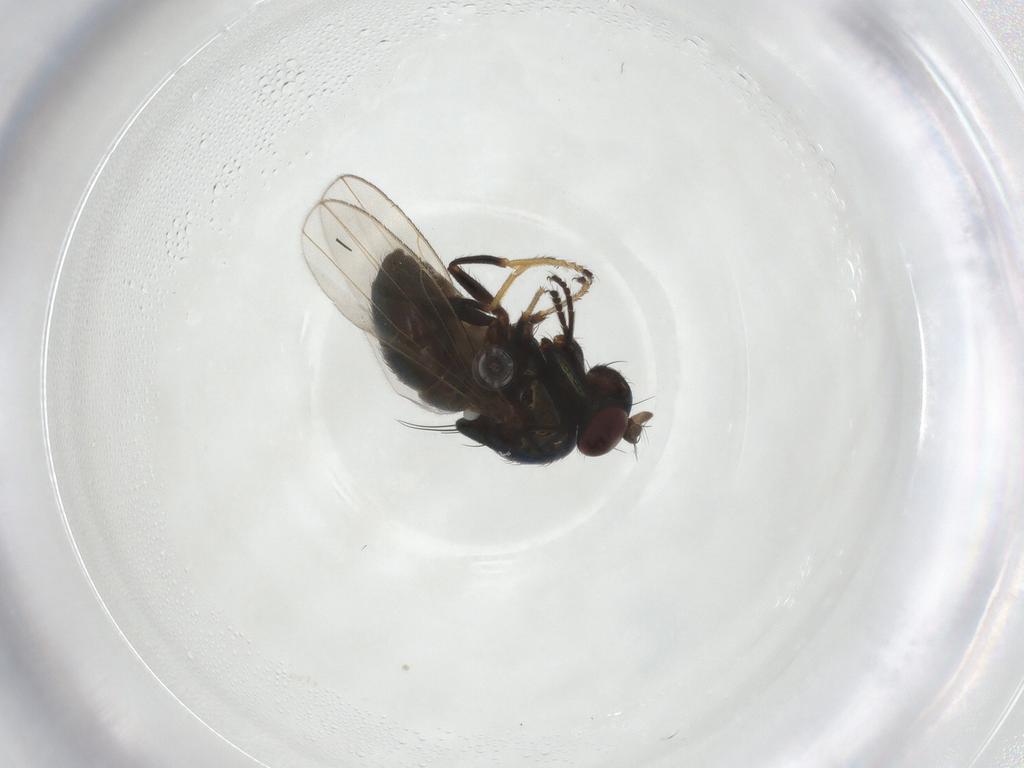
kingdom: Animalia
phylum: Arthropoda
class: Insecta
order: Diptera
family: Ephydridae
